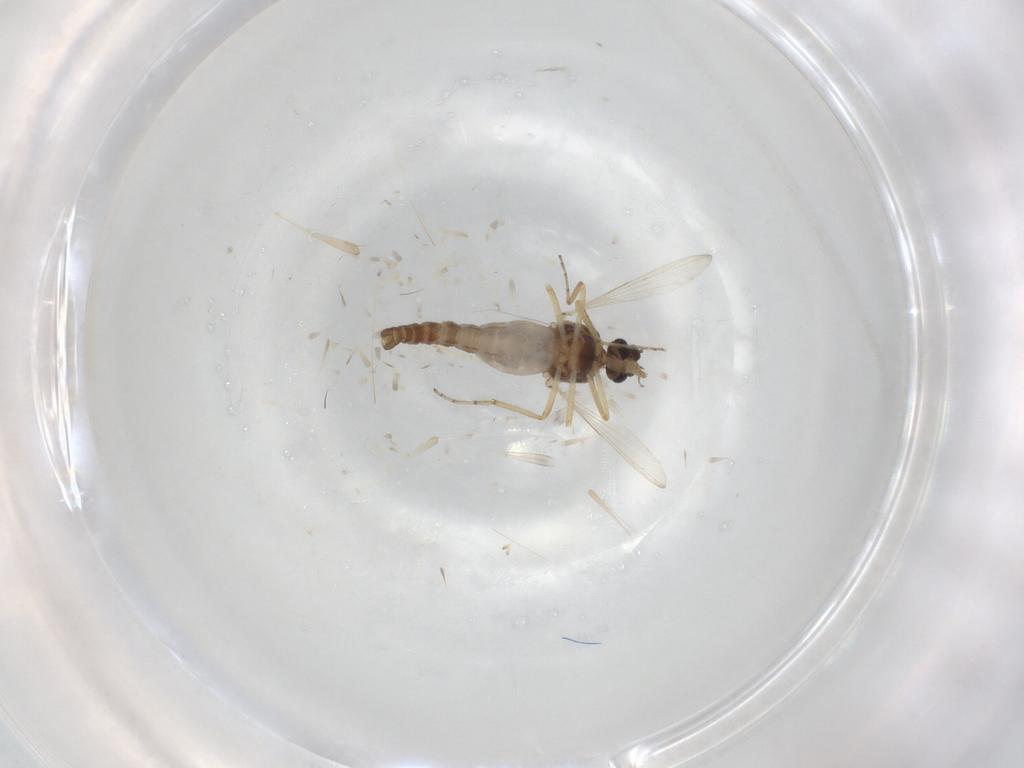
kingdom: Animalia
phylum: Arthropoda
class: Insecta
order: Diptera
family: Ceratopogonidae
